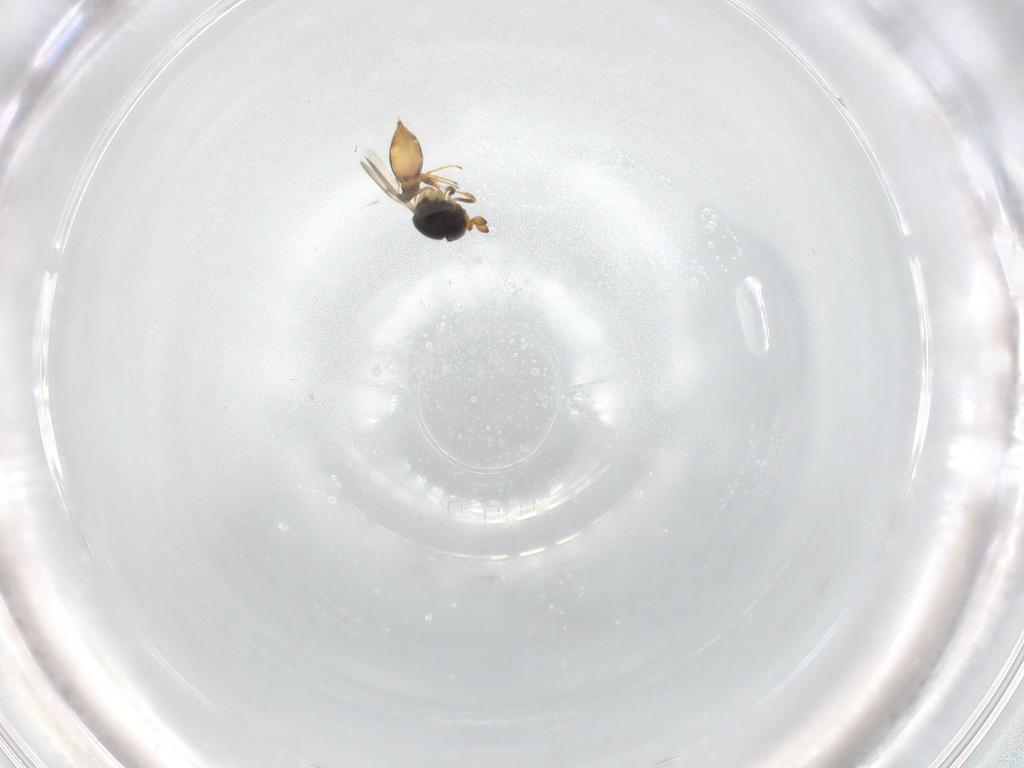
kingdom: Animalia
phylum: Arthropoda
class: Insecta
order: Hymenoptera
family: Scelionidae
